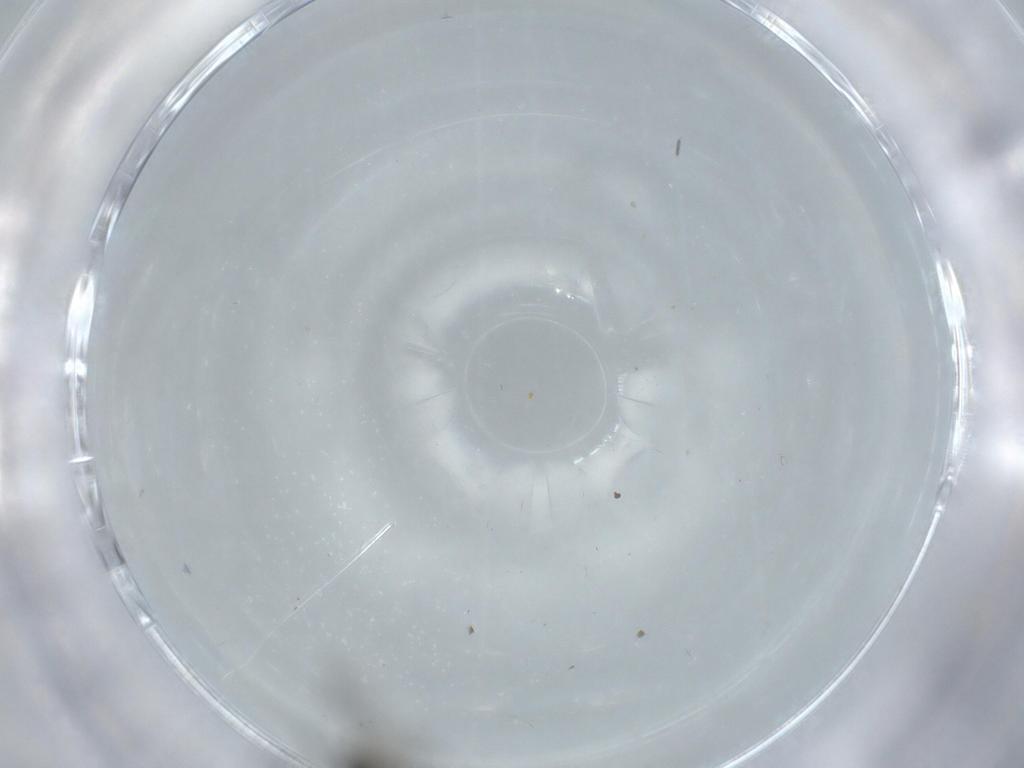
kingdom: Animalia
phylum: Arthropoda
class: Insecta
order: Diptera
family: Sciaridae
